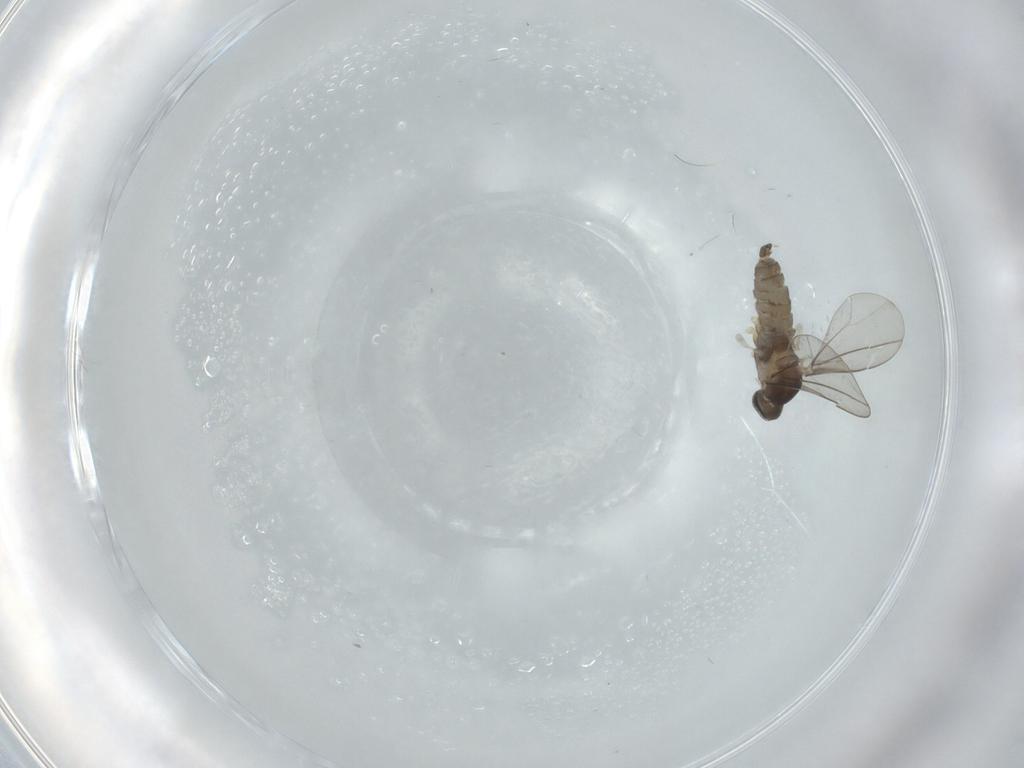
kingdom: Animalia
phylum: Arthropoda
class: Insecta
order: Diptera
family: Cecidomyiidae
